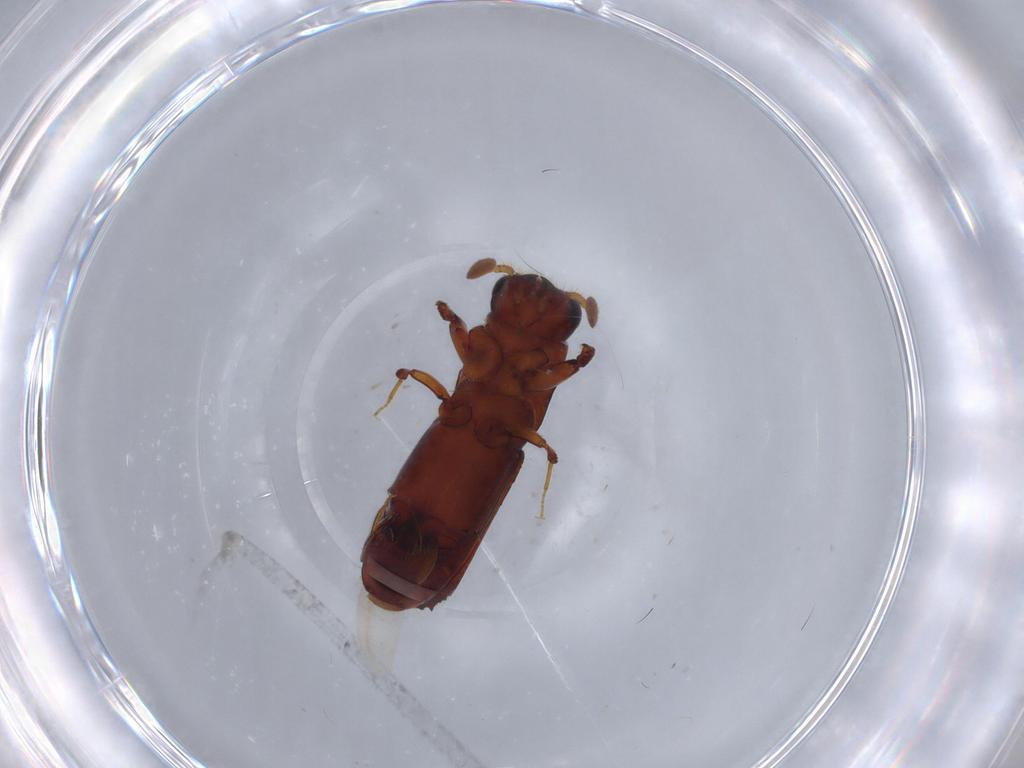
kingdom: Animalia
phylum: Arthropoda
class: Insecta
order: Coleoptera
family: Curculionidae
